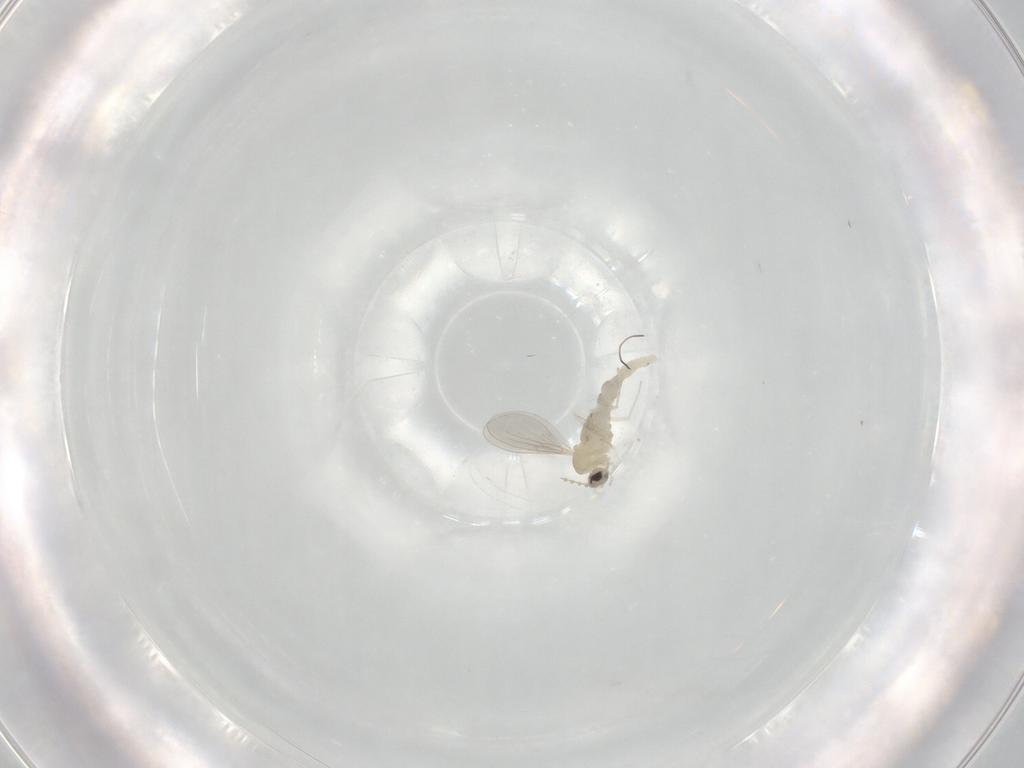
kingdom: Animalia
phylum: Arthropoda
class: Insecta
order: Diptera
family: Cecidomyiidae
